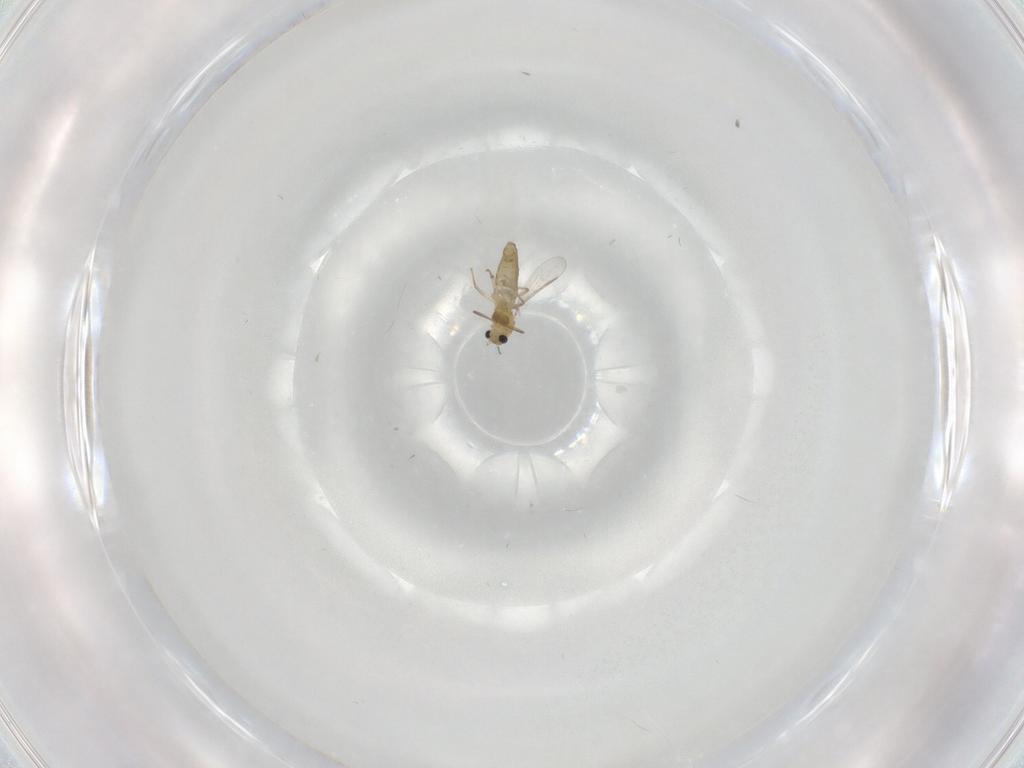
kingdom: Animalia
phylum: Arthropoda
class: Insecta
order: Diptera
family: Chironomidae
